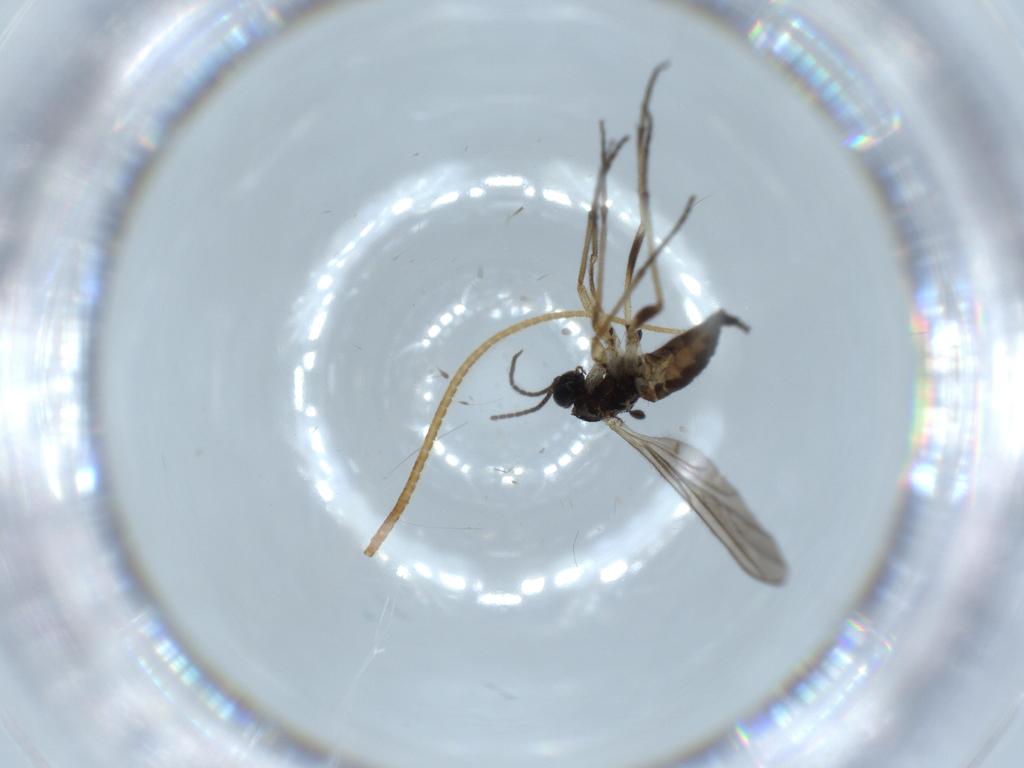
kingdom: Animalia
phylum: Arthropoda
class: Insecta
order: Diptera
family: Sciaridae
